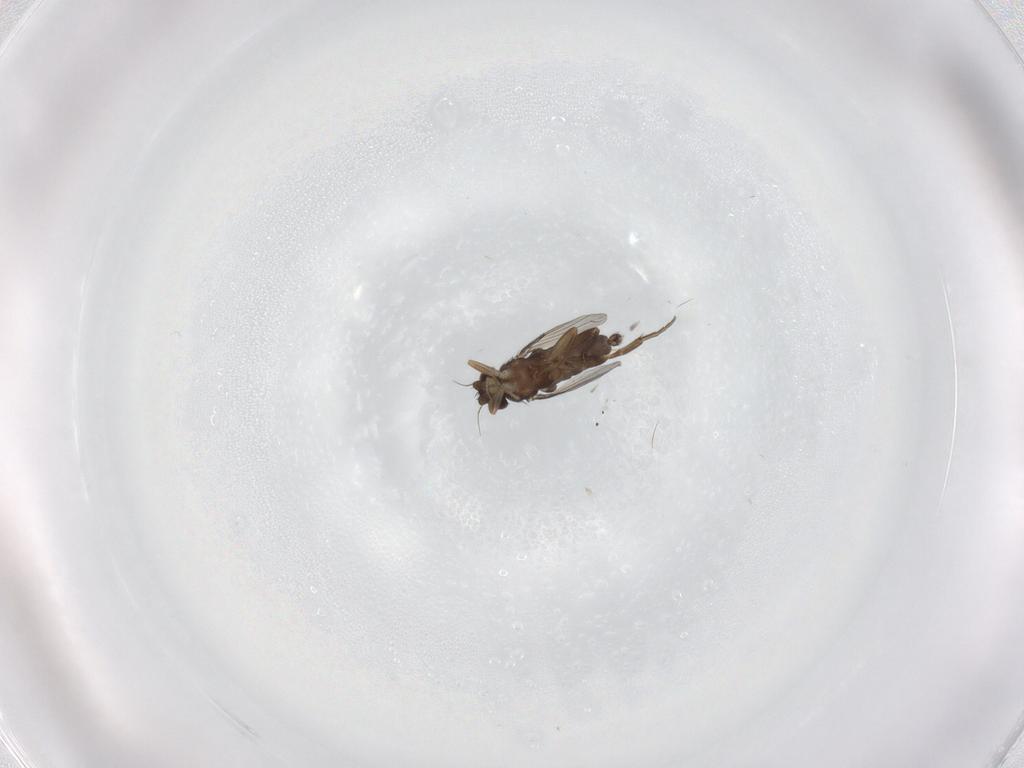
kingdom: Animalia
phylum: Arthropoda
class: Insecta
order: Diptera
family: Phoridae
